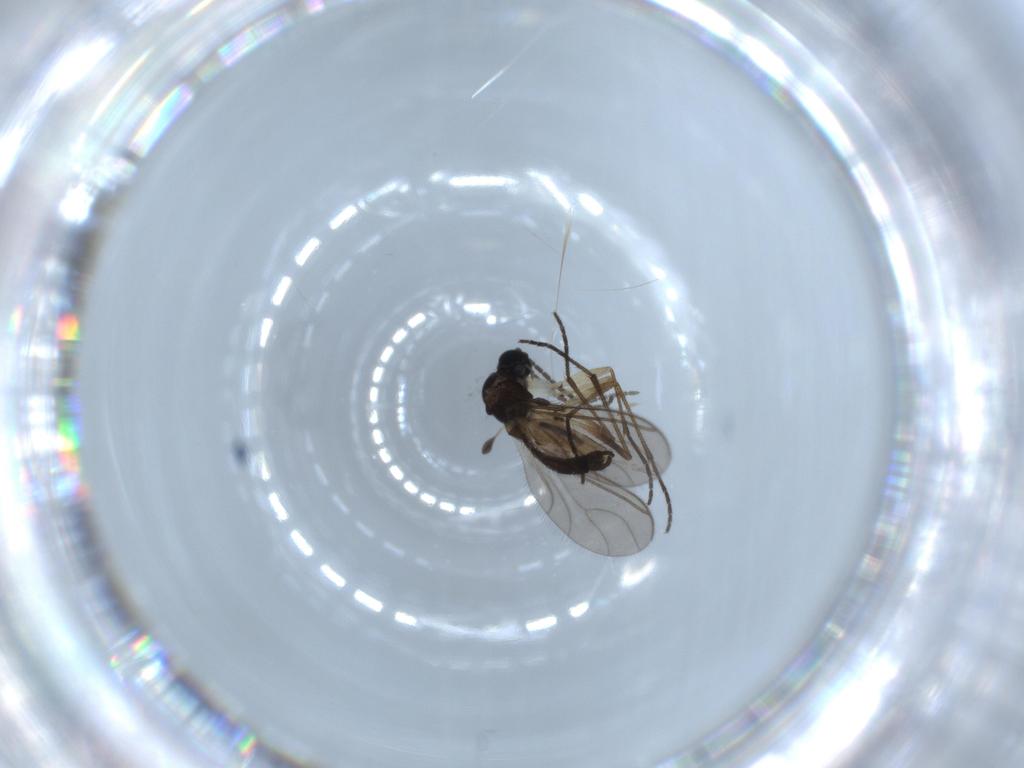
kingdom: Animalia
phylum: Arthropoda
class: Insecta
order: Diptera
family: Sciaridae
